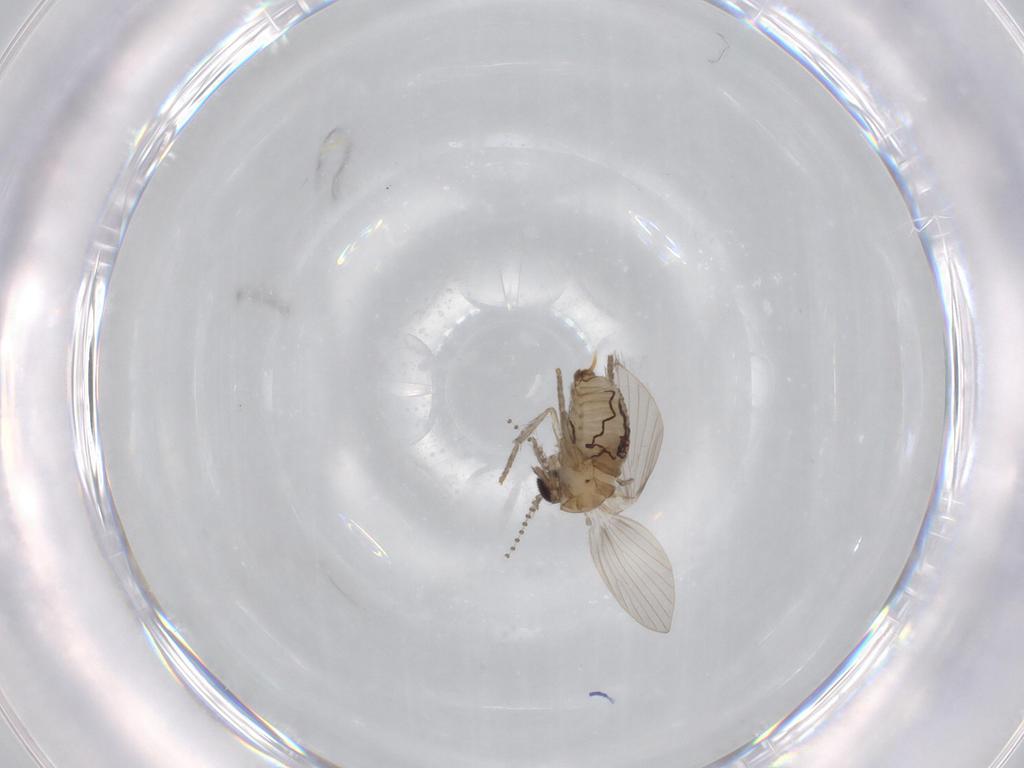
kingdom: Animalia
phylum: Arthropoda
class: Insecta
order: Diptera
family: Psychodidae
